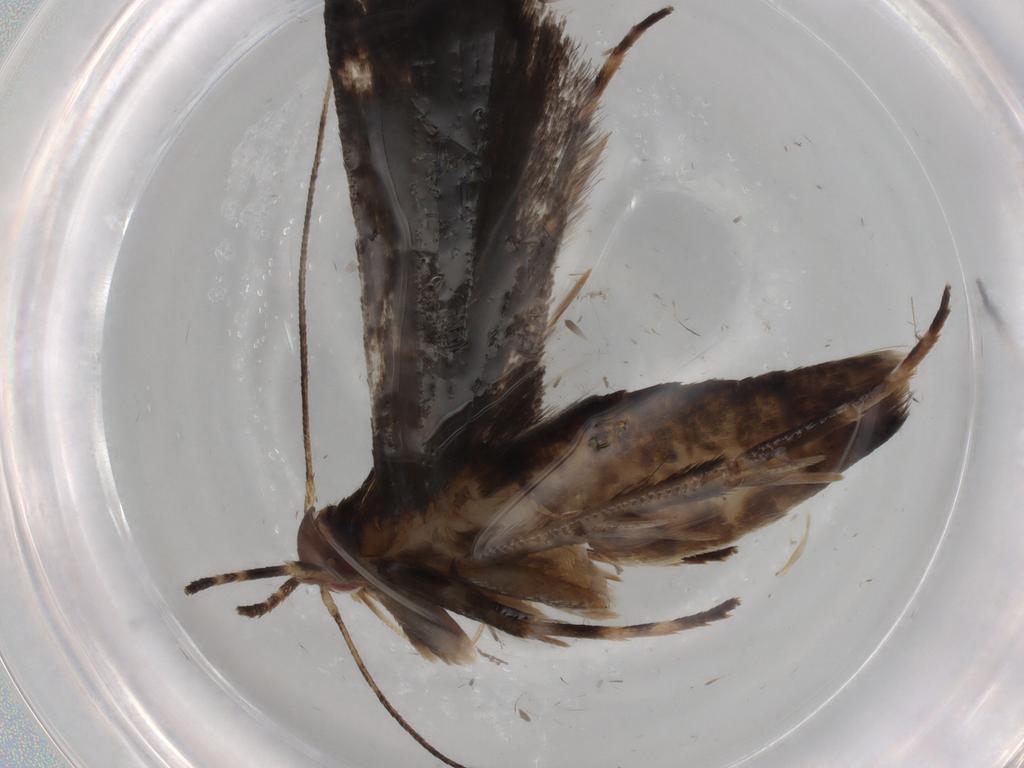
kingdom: Animalia
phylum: Arthropoda
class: Insecta
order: Lepidoptera
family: Gelechiidae
